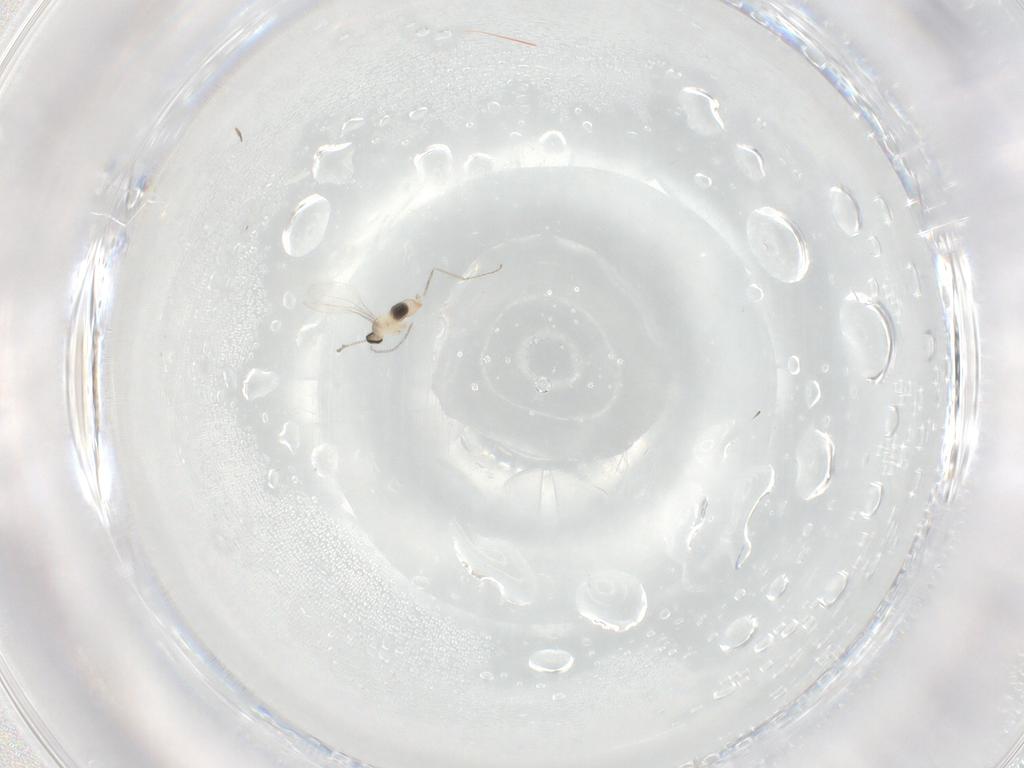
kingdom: Animalia
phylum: Arthropoda
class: Insecta
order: Diptera
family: Cecidomyiidae
